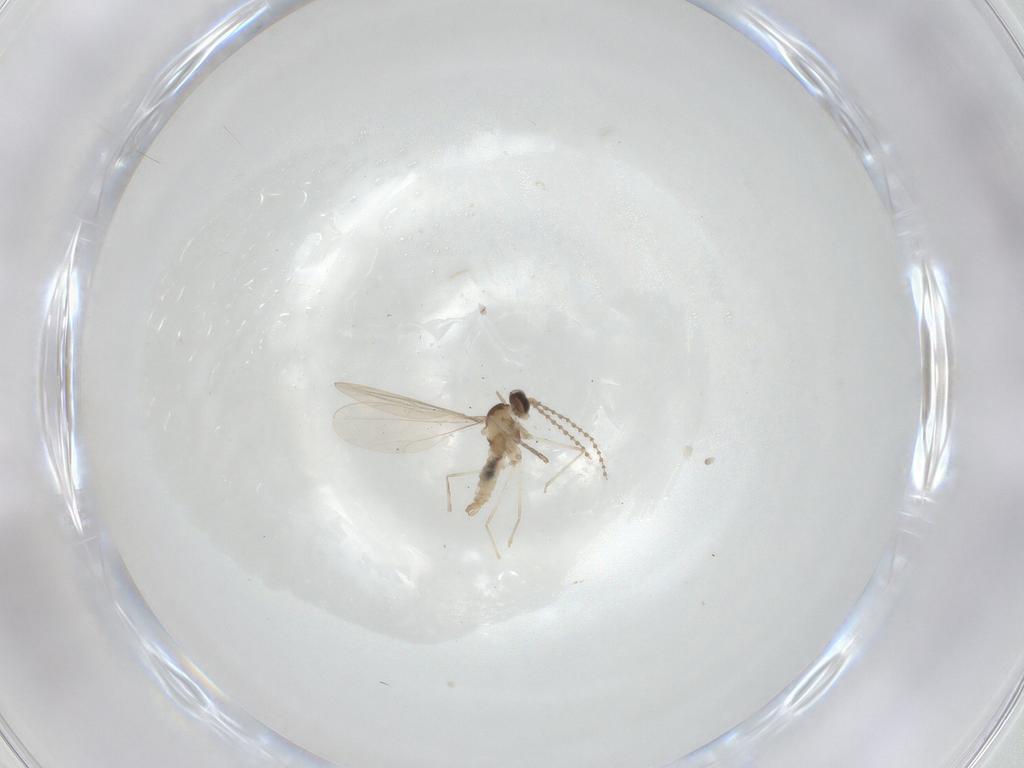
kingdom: Animalia
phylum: Arthropoda
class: Insecta
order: Diptera
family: Cecidomyiidae
